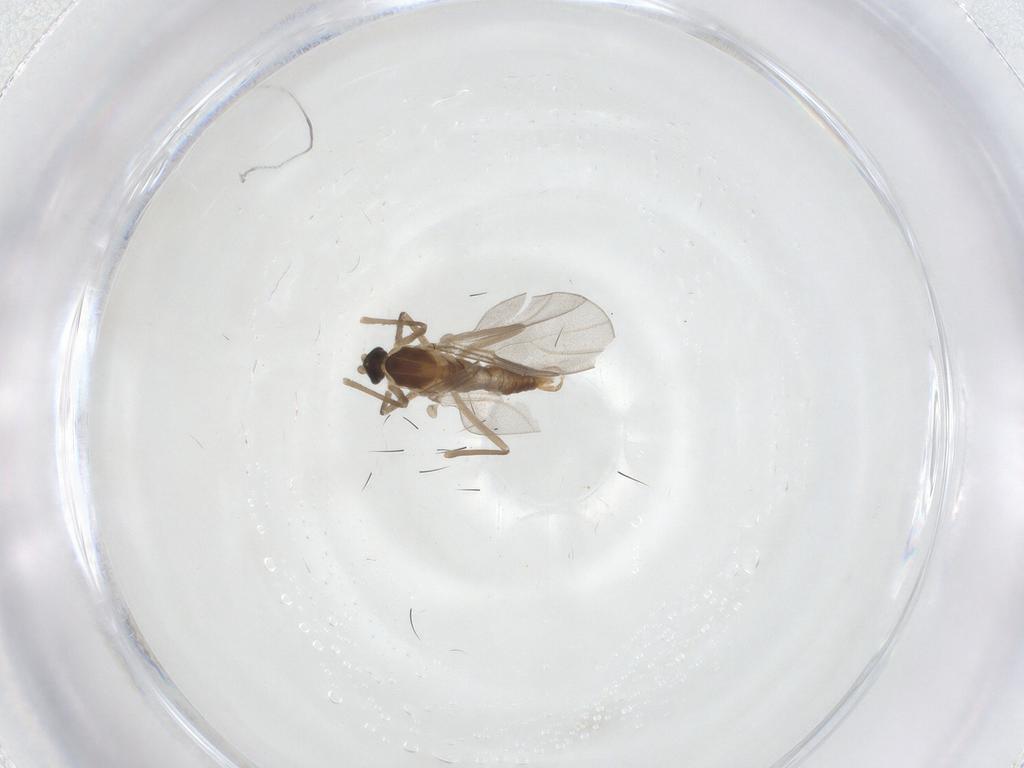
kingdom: Animalia
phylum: Arthropoda
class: Insecta
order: Diptera
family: Cecidomyiidae
